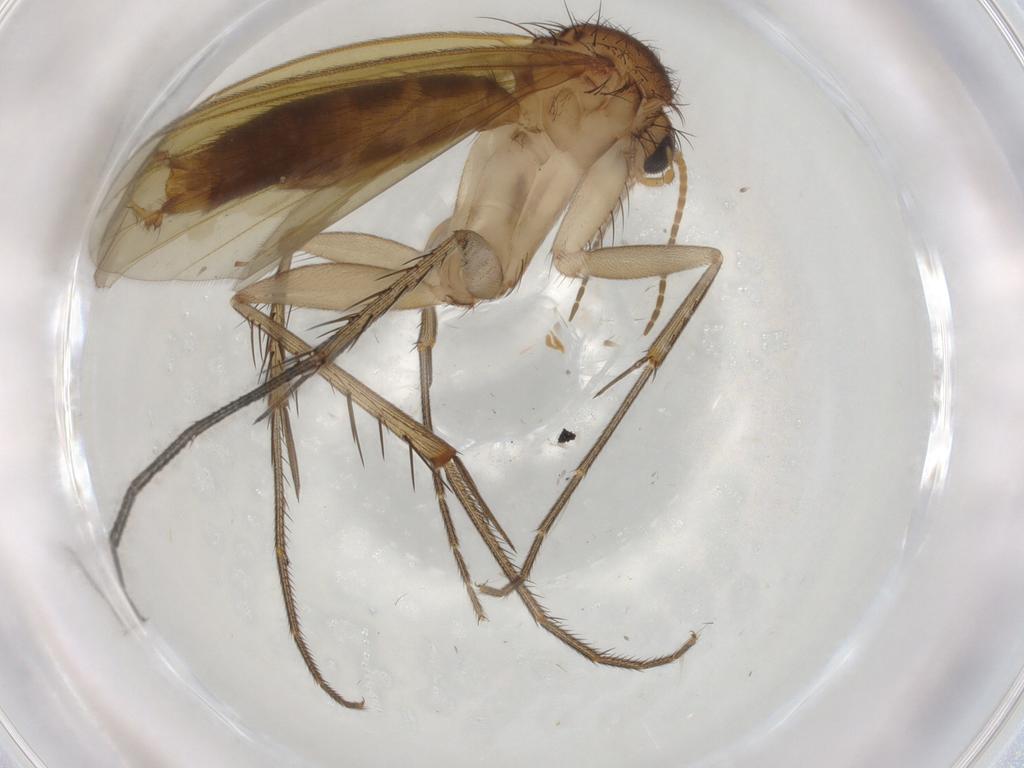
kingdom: Animalia
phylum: Arthropoda
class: Insecta
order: Diptera
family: Mycetophilidae
